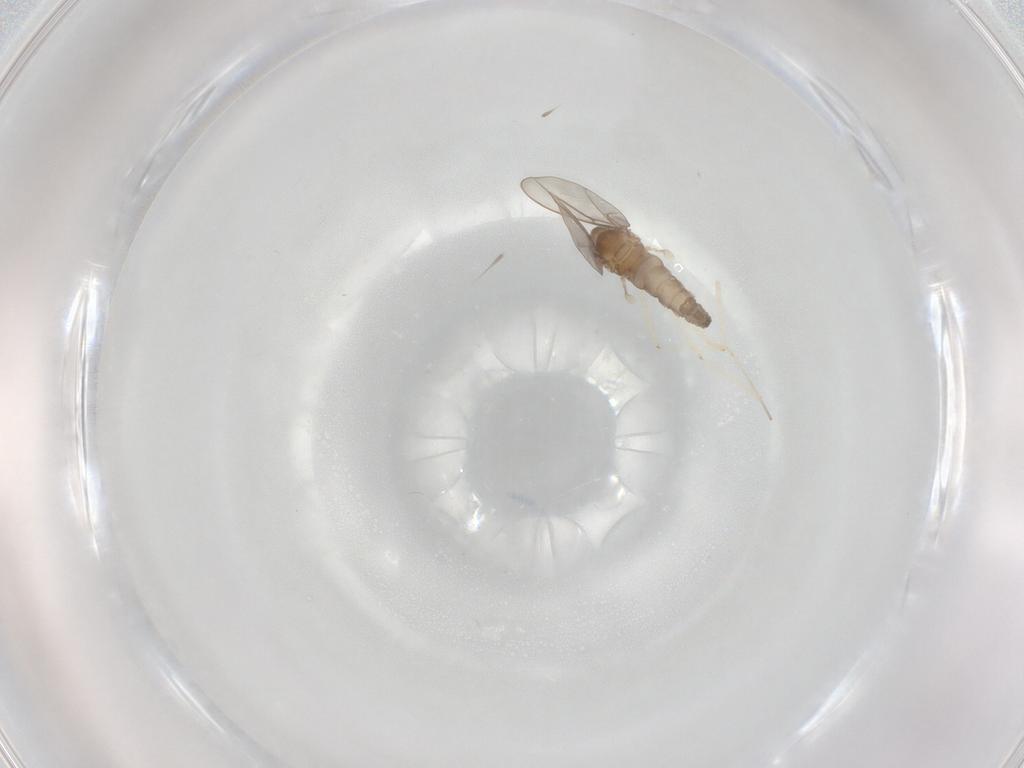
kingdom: Animalia
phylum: Arthropoda
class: Insecta
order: Diptera
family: Cecidomyiidae
